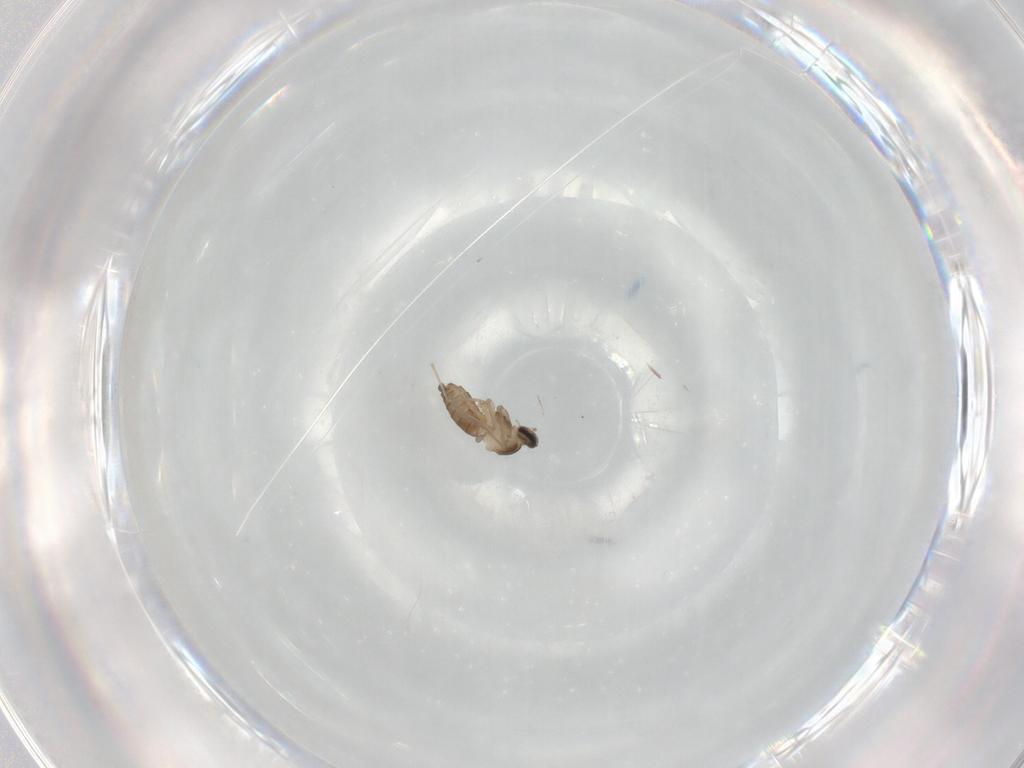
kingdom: Animalia
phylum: Arthropoda
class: Insecta
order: Diptera
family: Cecidomyiidae
